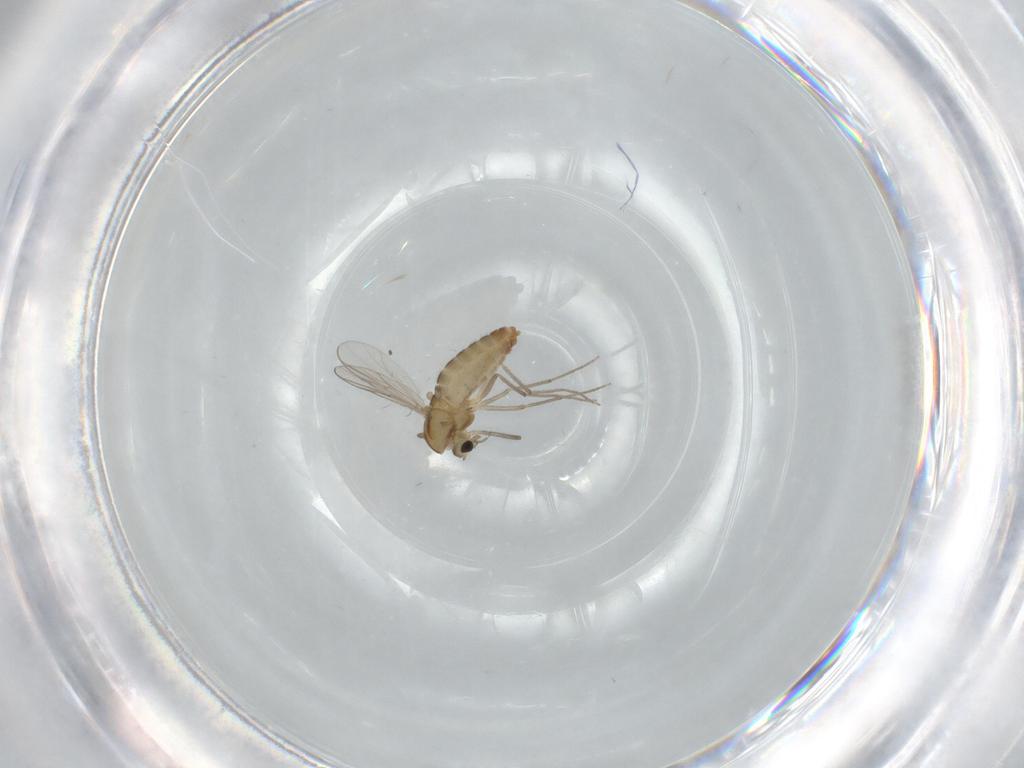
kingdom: Animalia
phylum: Arthropoda
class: Insecta
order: Diptera
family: Chironomidae
